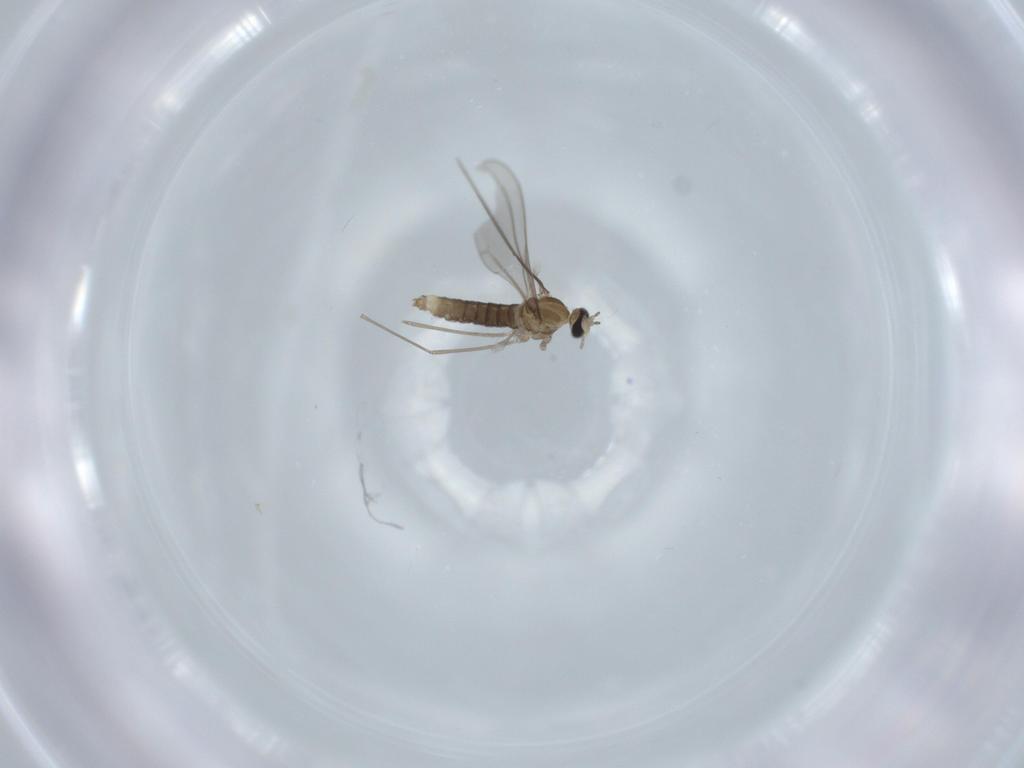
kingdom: Animalia
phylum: Arthropoda
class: Insecta
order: Diptera
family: Cecidomyiidae
